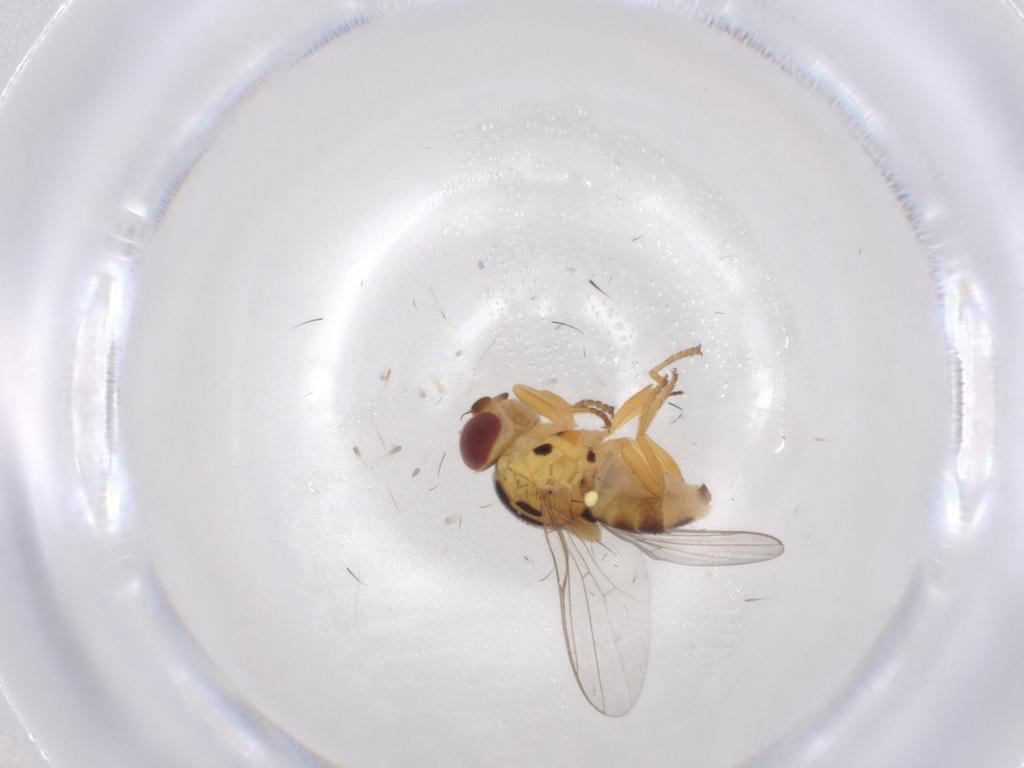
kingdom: Animalia
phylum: Arthropoda
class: Insecta
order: Diptera
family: Chloropidae
